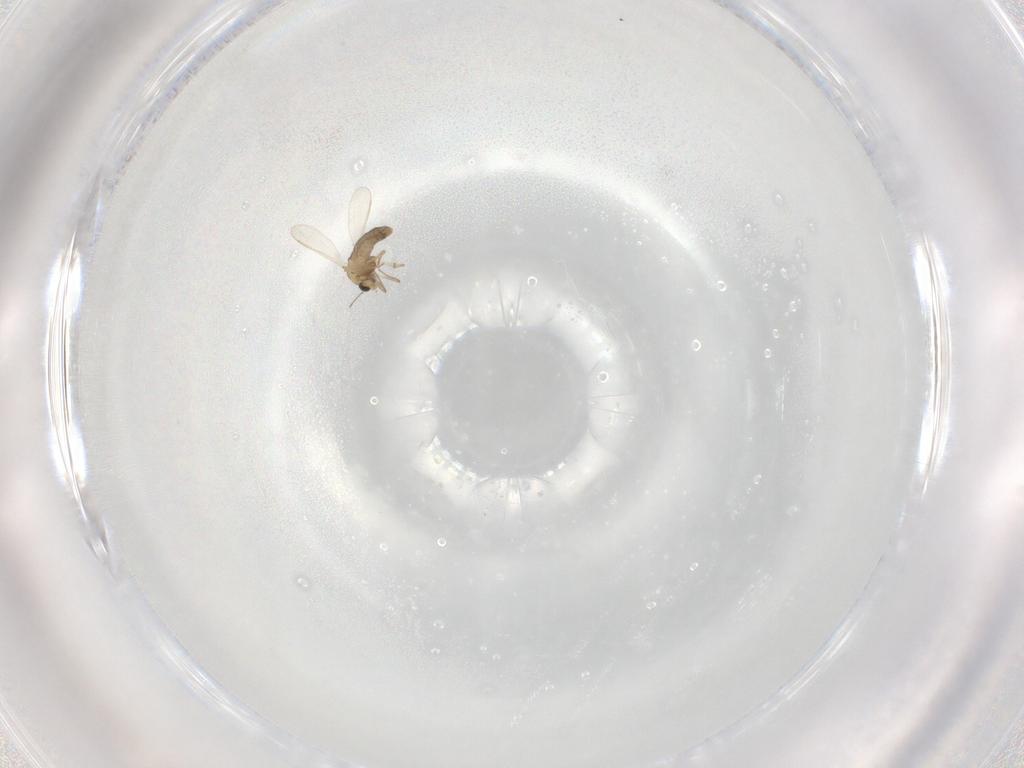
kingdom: Animalia
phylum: Arthropoda
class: Insecta
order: Diptera
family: Chironomidae
